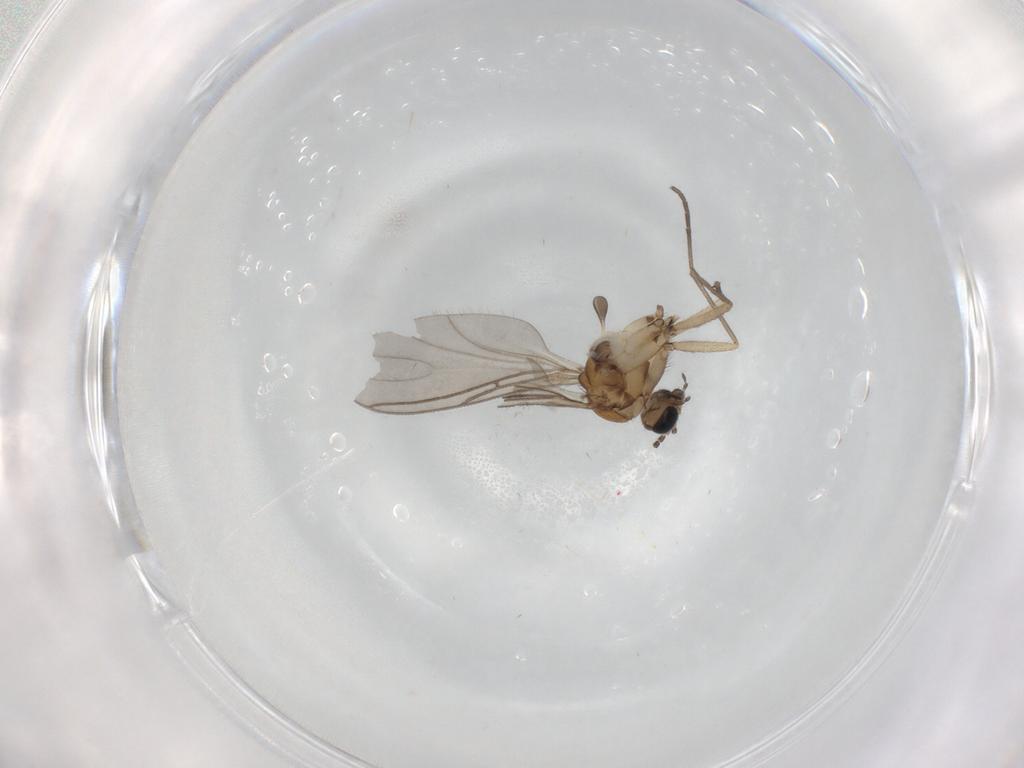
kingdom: Animalia
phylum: Arthropoda
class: Insecta
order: Diptera
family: Sciaridae
